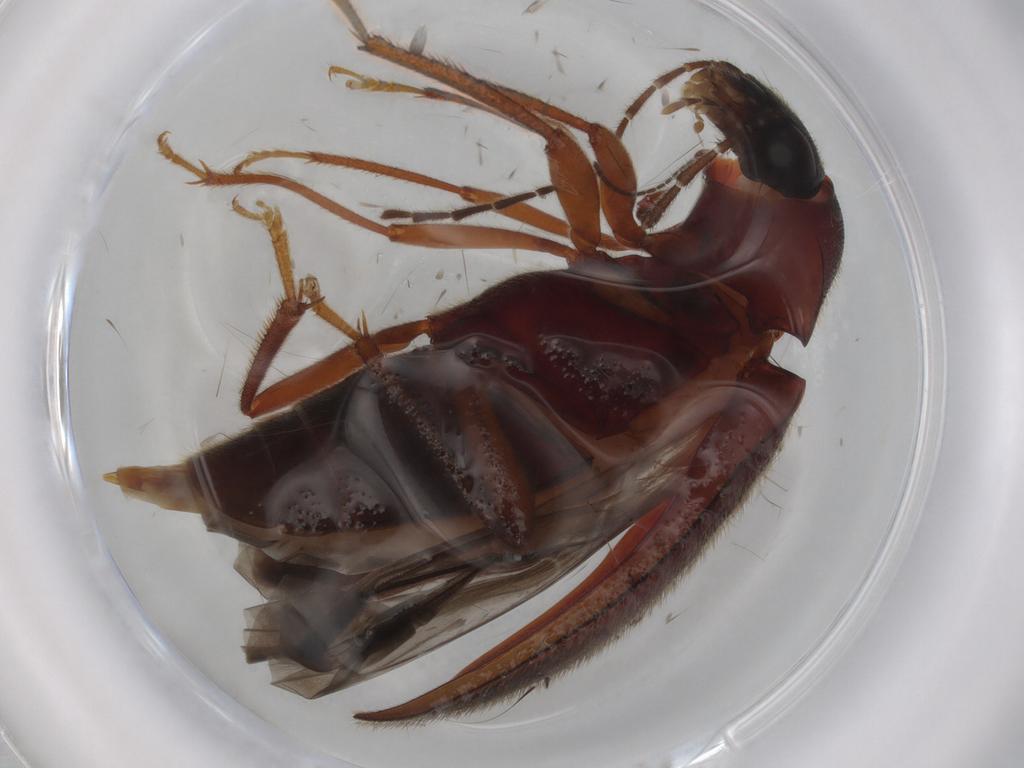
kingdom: Animalia
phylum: Arthropoda
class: Insecta
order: Coleoptera
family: Ptilodactylidae
